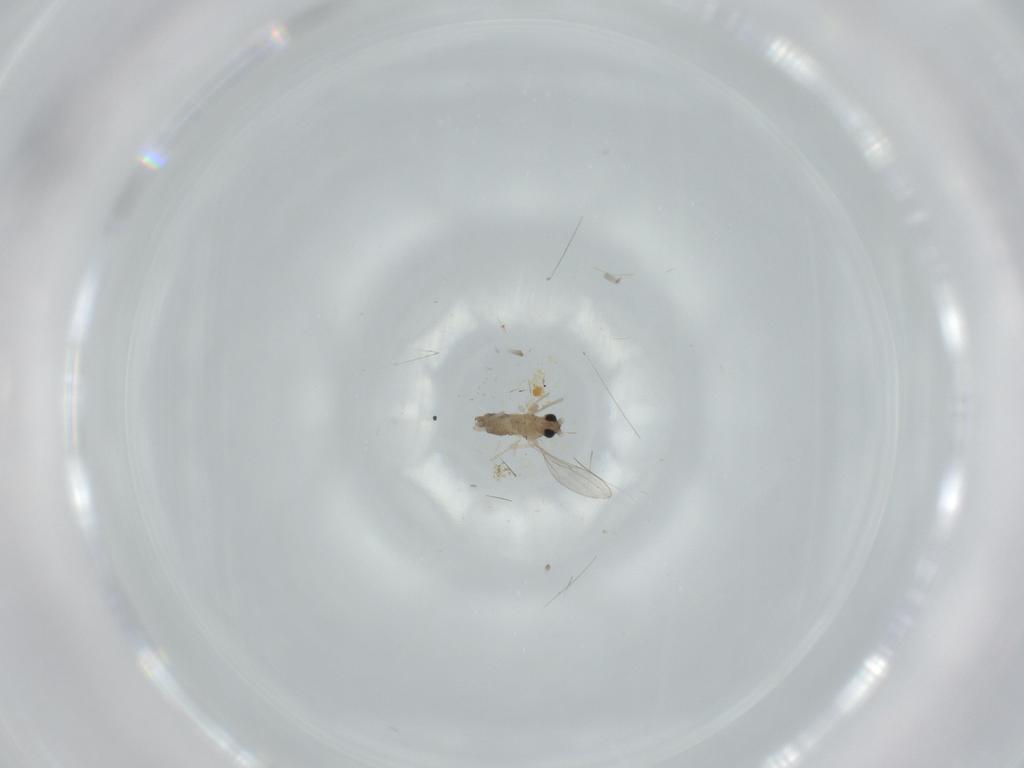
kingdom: Animalia
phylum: Arthropoda
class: Insecta
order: Diptera
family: Cecidomyiidae
